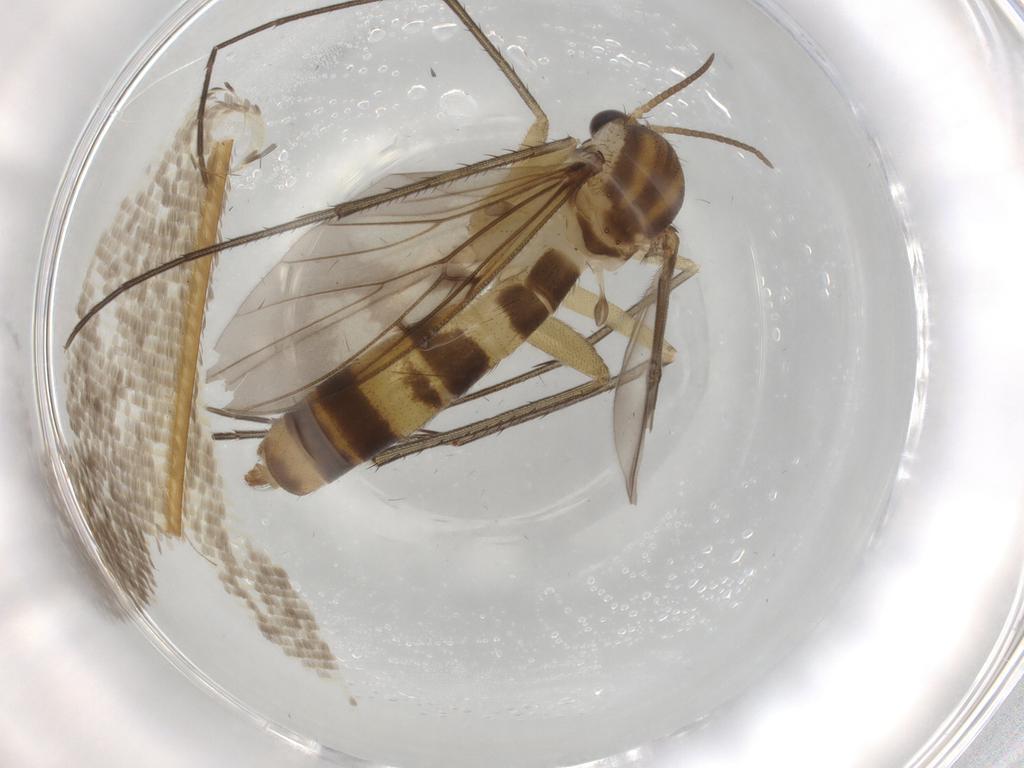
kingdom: Animalia
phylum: Arthropoda
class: Insecta
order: Diptera
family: Mycetophilidae
